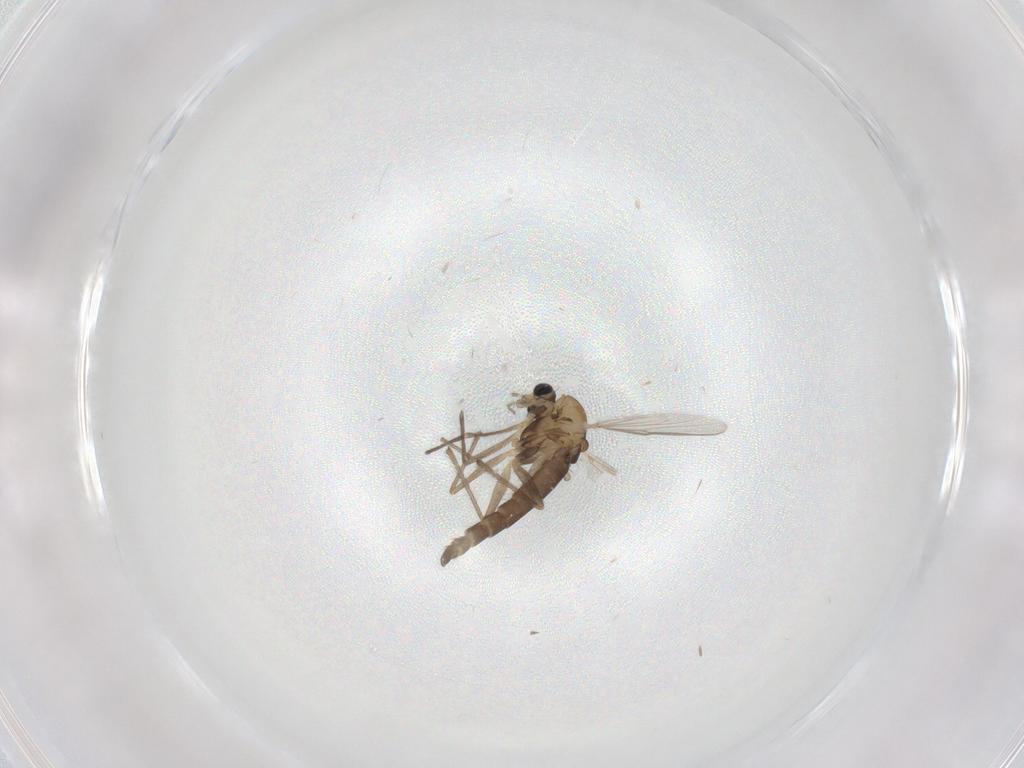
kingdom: Animalia
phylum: Arthropoda
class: Insecta
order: Diptera
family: Chironomidae
